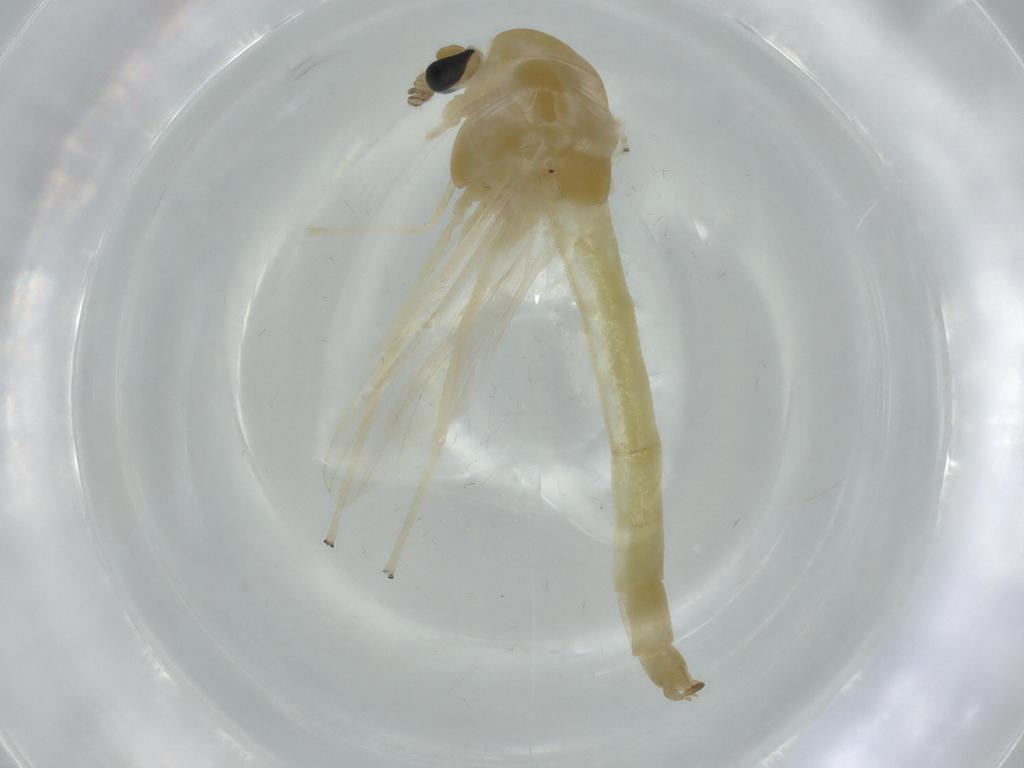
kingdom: Animalia
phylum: Arthropoda
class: Insecta
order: Diptera
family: Chironomidae
